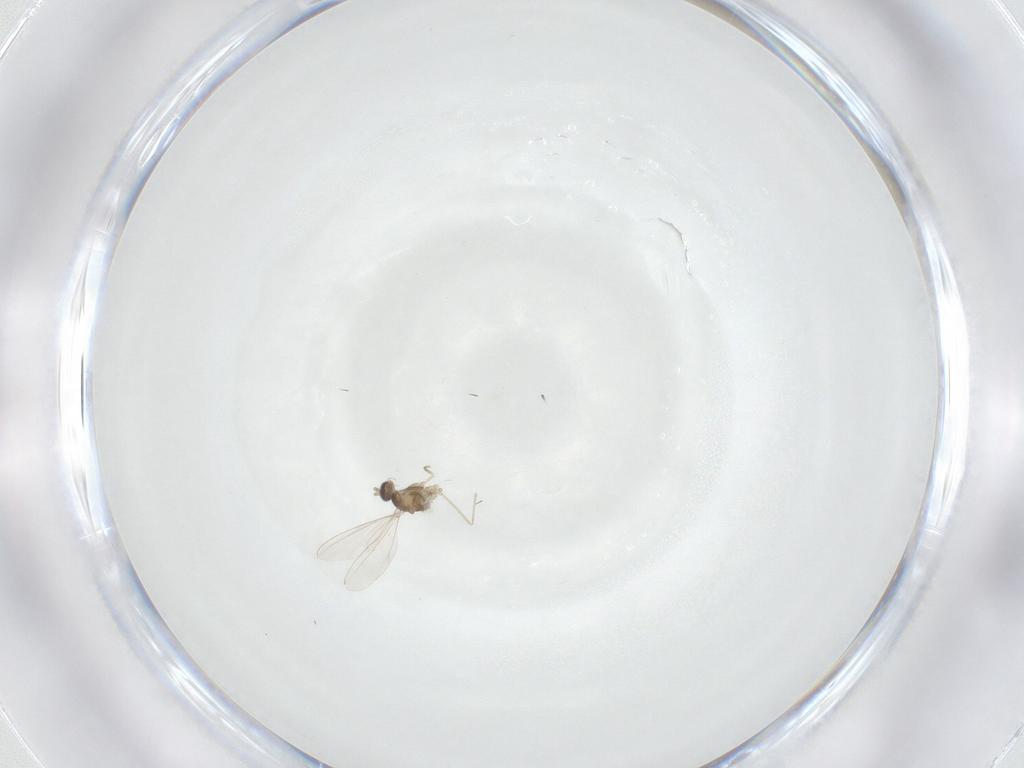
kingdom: Animalia
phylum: Arthropoda
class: Insecta
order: Diptera
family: Cecidomyiidae
